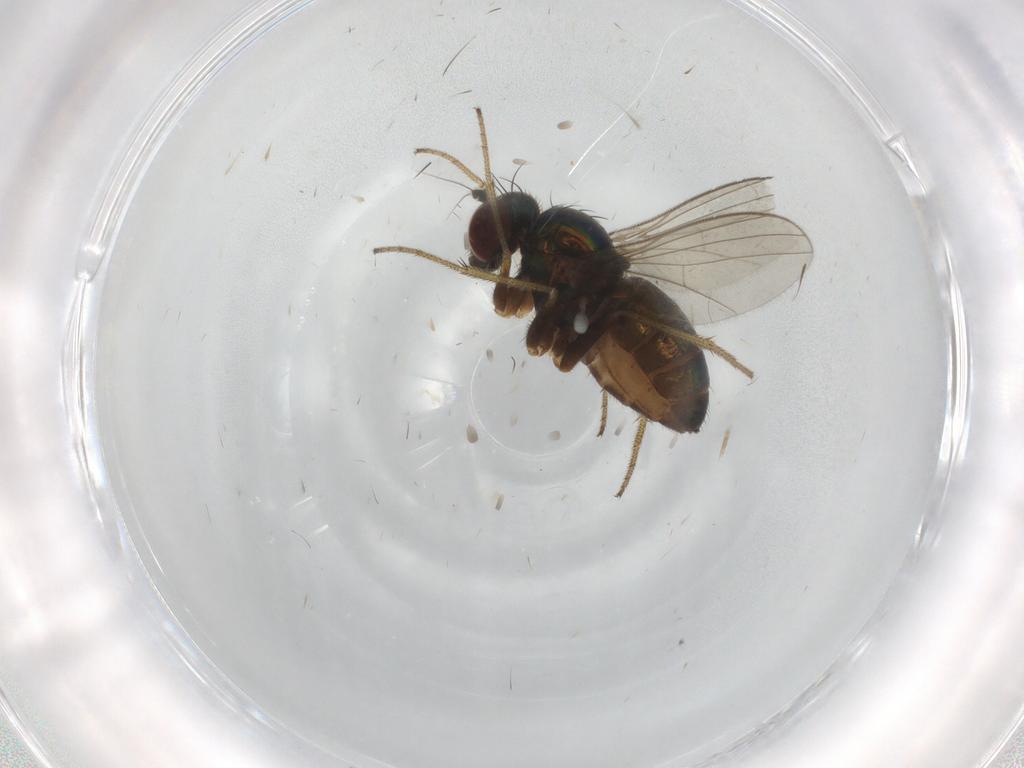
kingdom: Animalia
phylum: Arthropoda
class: Insecta
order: Diptera
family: Dolichopodidae
